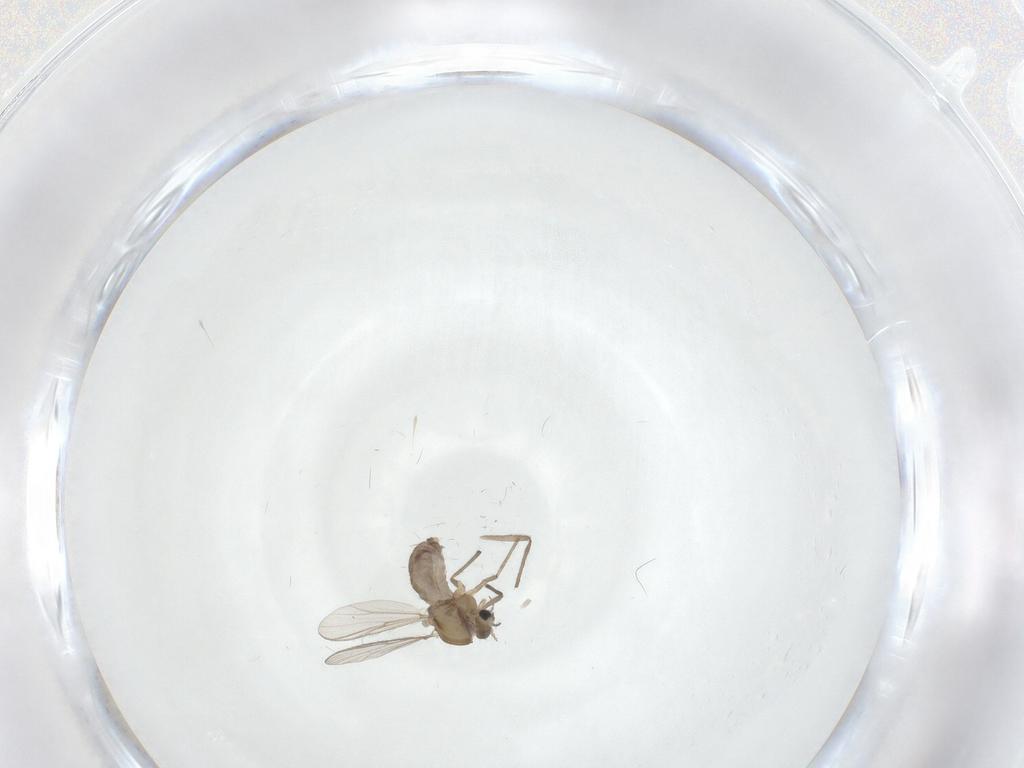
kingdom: Animalia
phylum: Arthropoda
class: Insecta
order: Diptera
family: Chironomidae
